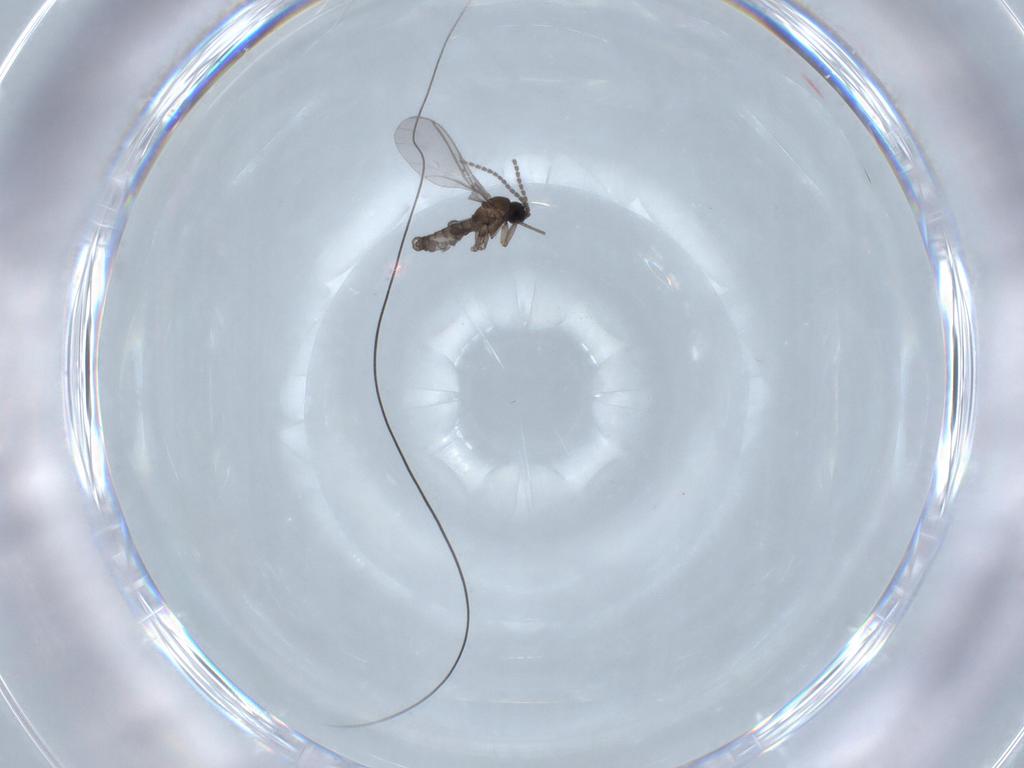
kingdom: Animalia
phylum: Arthropoda
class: Insecta
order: Diptera
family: Sciaridae
